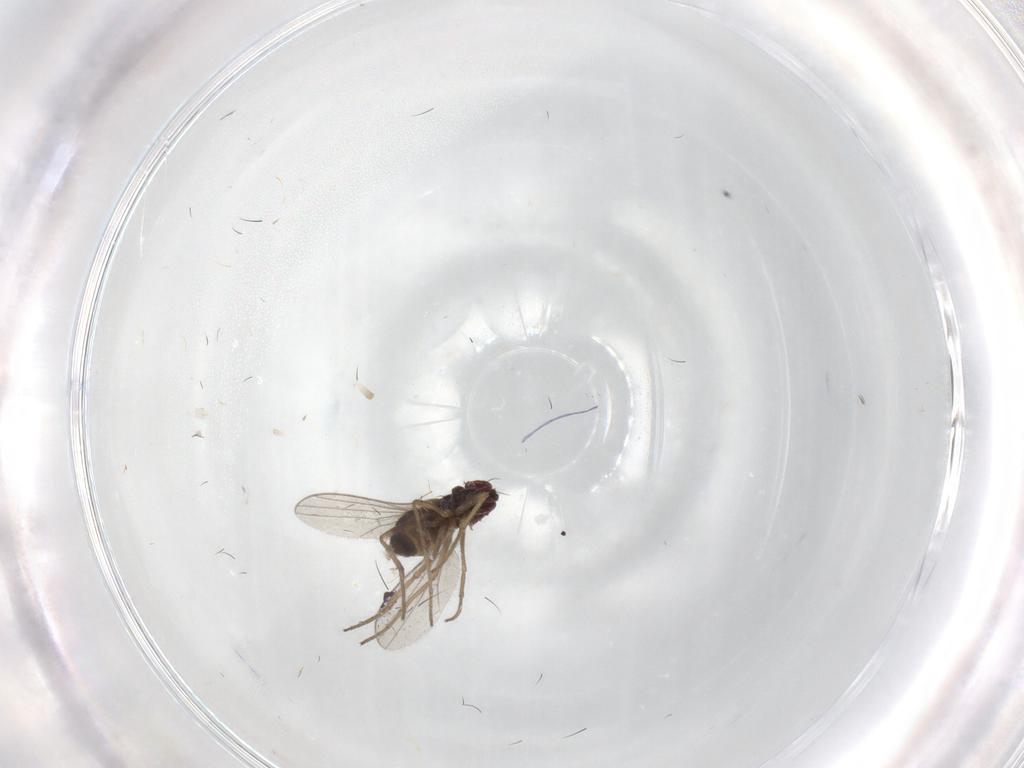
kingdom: Animalia
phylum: Arthropoda
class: Insecta
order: Diptera
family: Dolichopodidae
